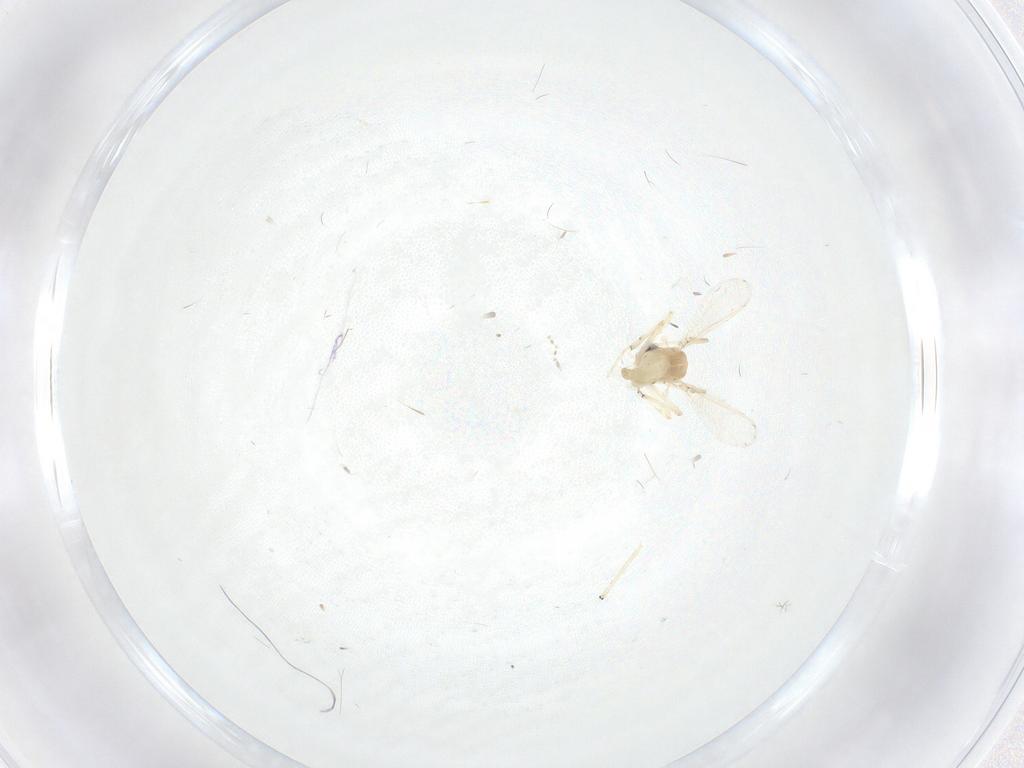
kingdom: Animalia
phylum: Arthropoda
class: Insecta
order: Diptera
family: Chironomidae
